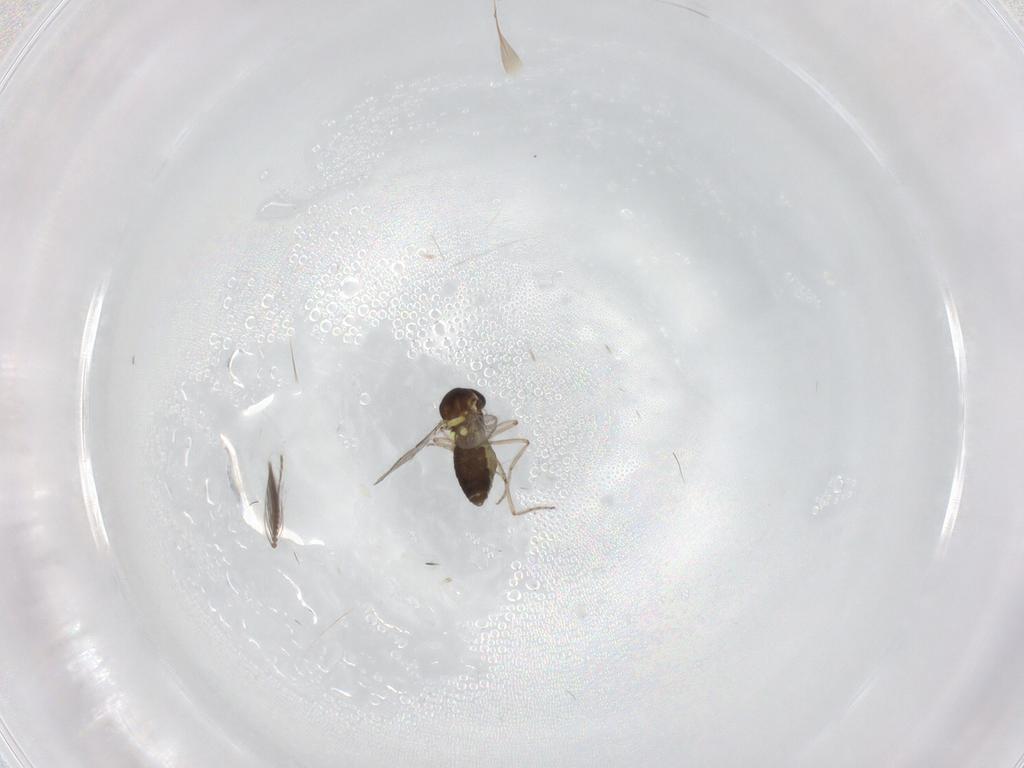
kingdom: Animalia
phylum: Arthropoda
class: Insecta
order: Diptera
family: Ceratopogonidae
